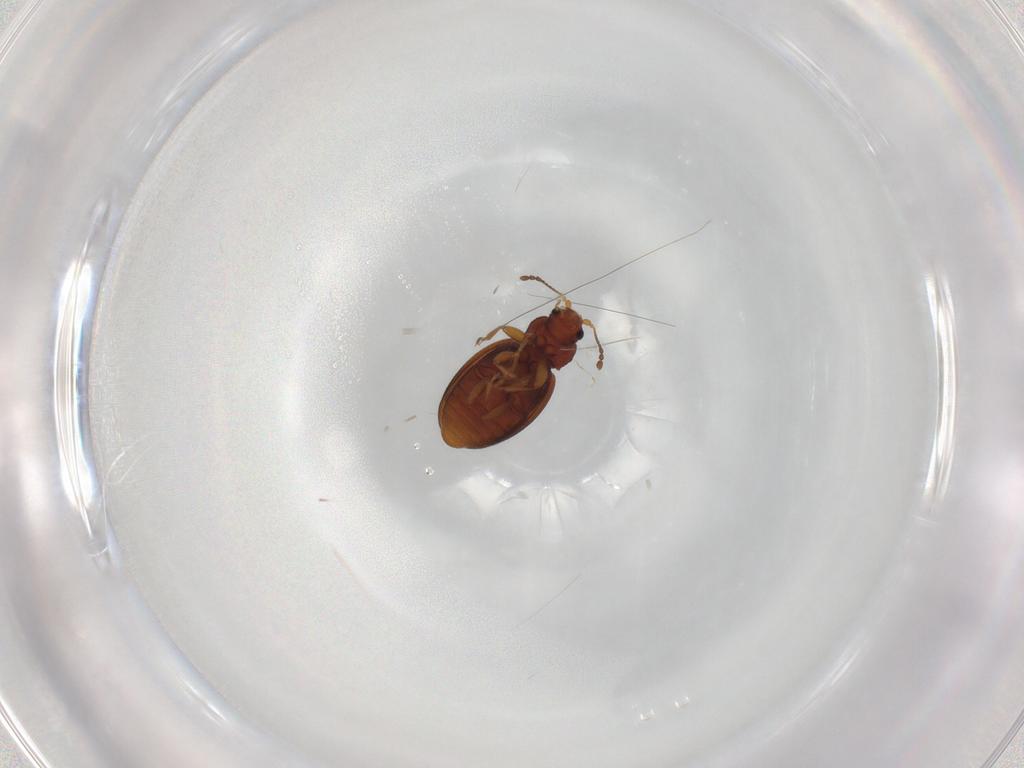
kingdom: Animalia
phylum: Arthropoda
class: Insecta
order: Coleoptera
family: Latridiidae
